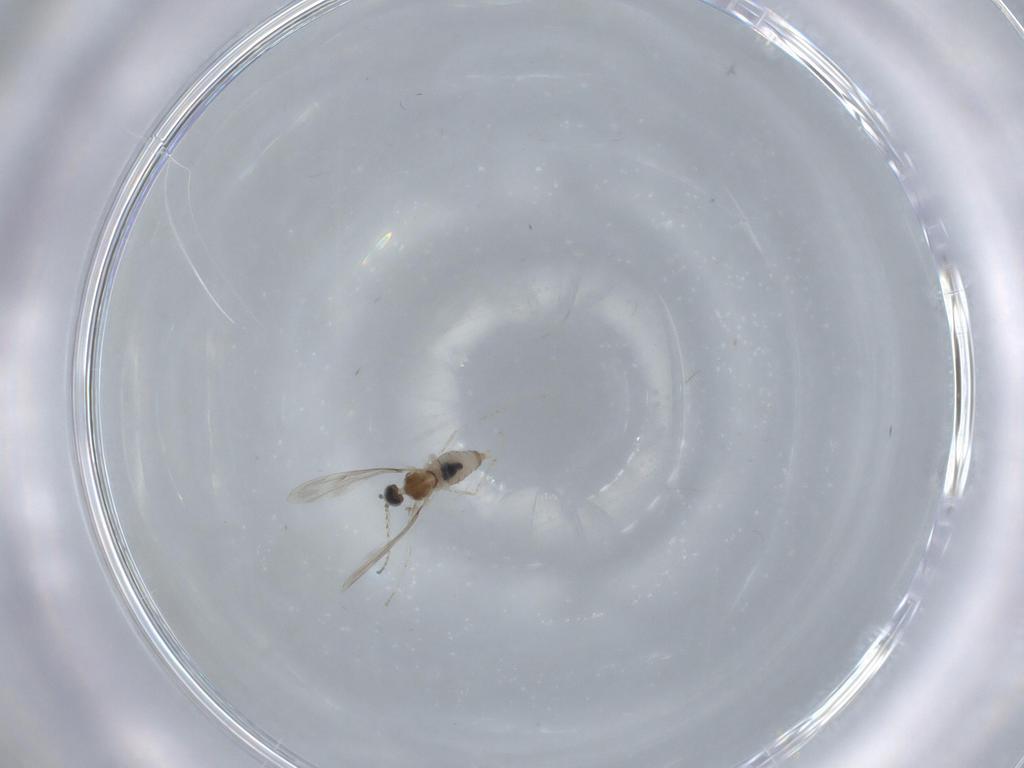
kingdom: Animalia
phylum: Arthropoda
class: Insecta
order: Diptera
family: Cecidomyiidae
